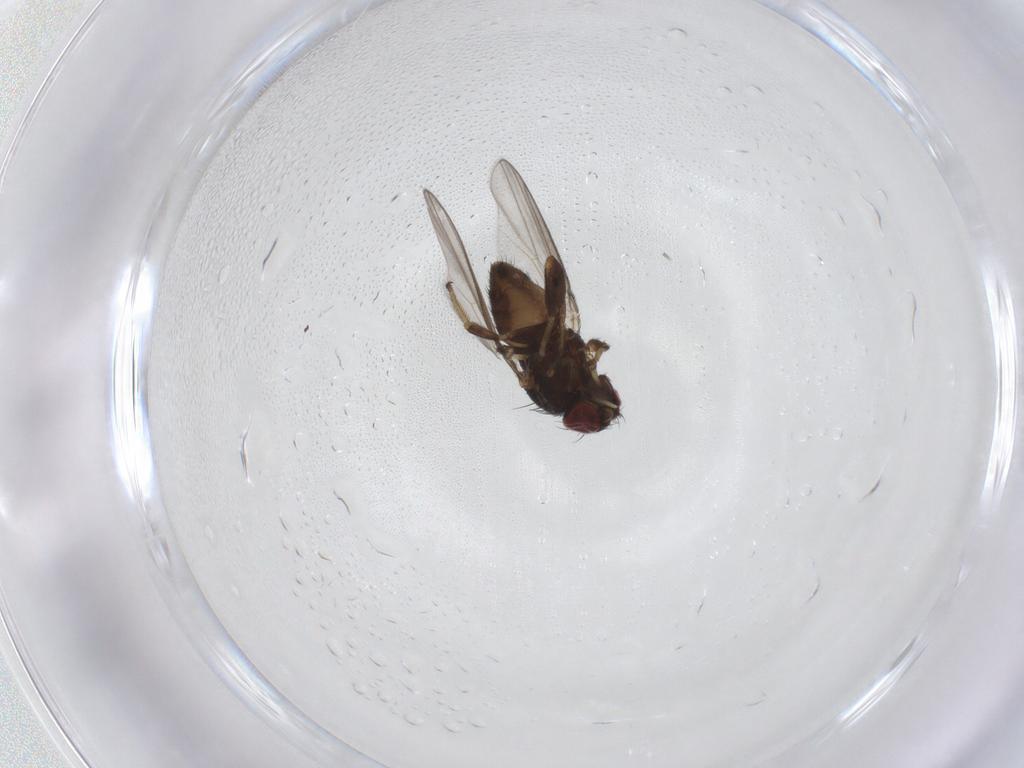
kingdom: Animalia
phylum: Arthropoda
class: Insecta
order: Diptera
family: Milichiidae
